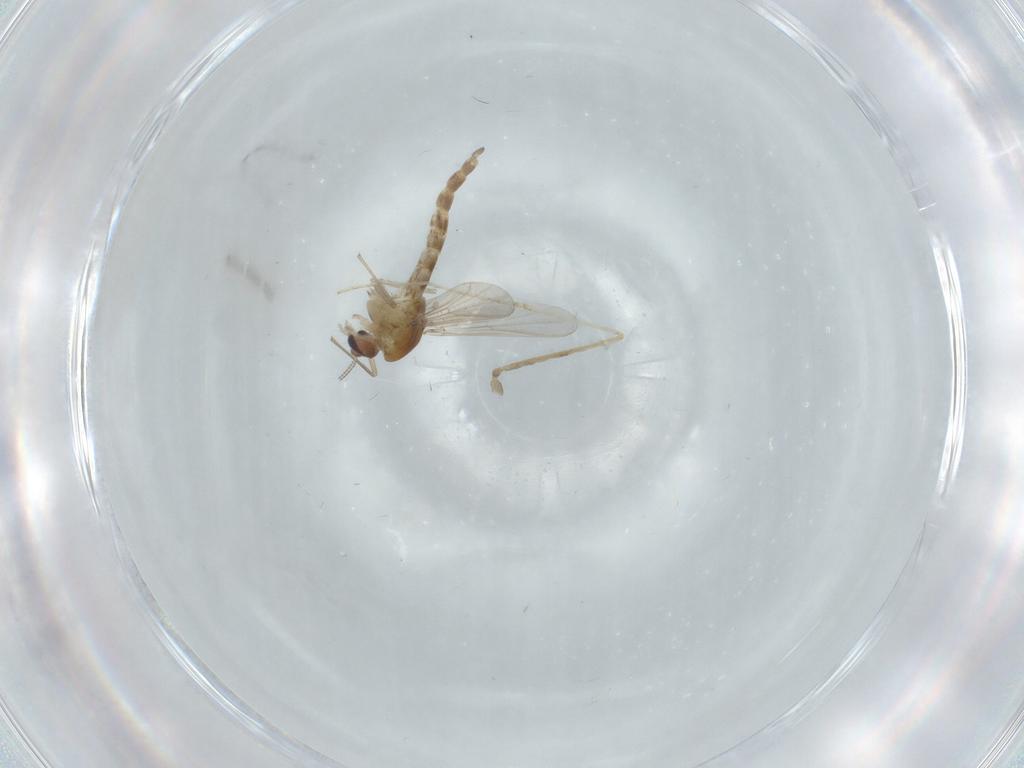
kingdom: Animalia
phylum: Arthropoda
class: Insecta
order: Diptera
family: Chironomidae
